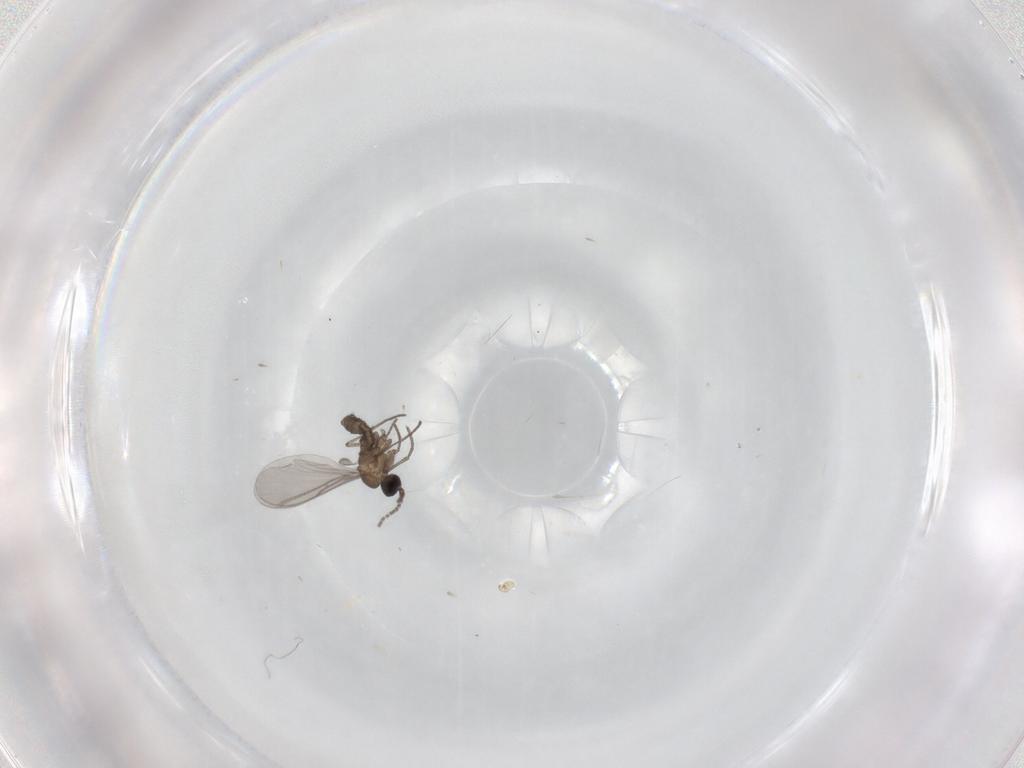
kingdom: Animalia
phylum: Arthropoda
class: Insecta
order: Diptera
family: Sciaridae
